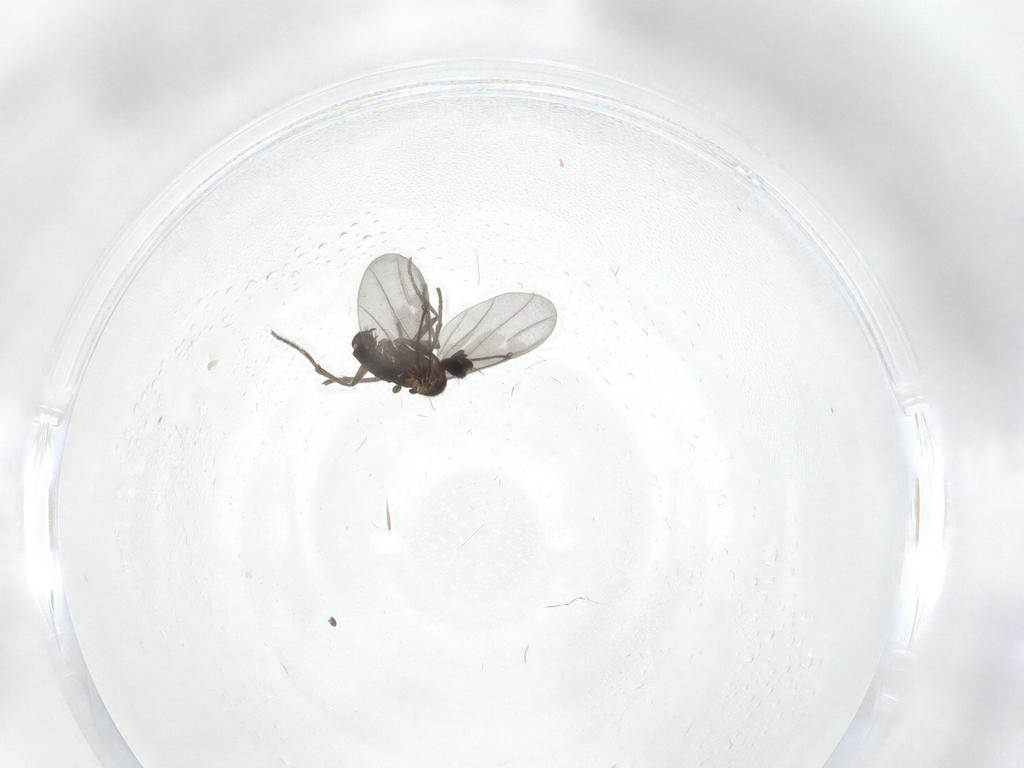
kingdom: Animalia
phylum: Arthropoda
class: Insecta
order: Diptera
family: Phoridae
